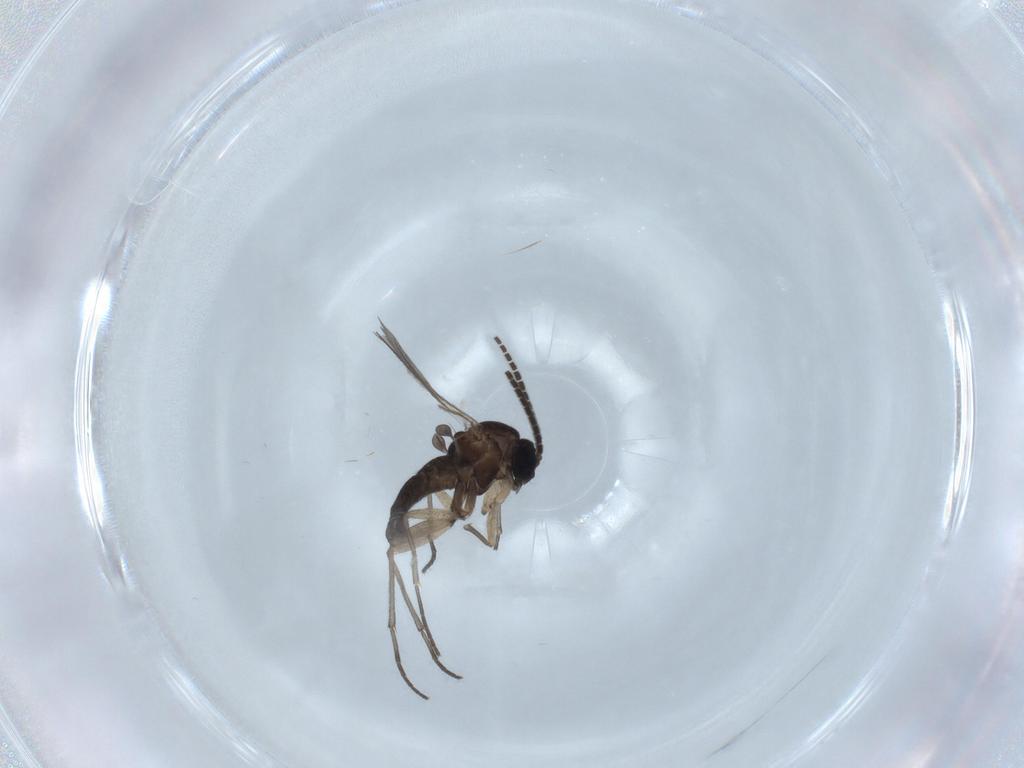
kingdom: Animalia
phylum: Arthropoda
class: Insecta
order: Diptera
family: Sciaridae
